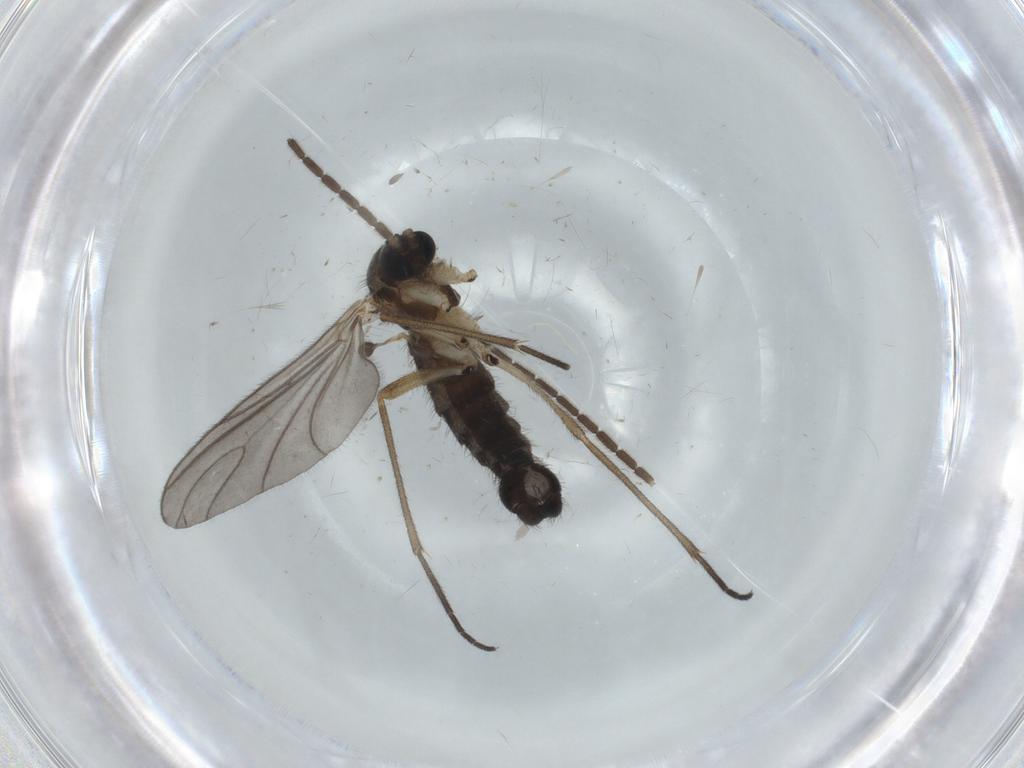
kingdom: Animalia
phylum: Arthropoda
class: Insecta
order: Diptera
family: Sciaridae
